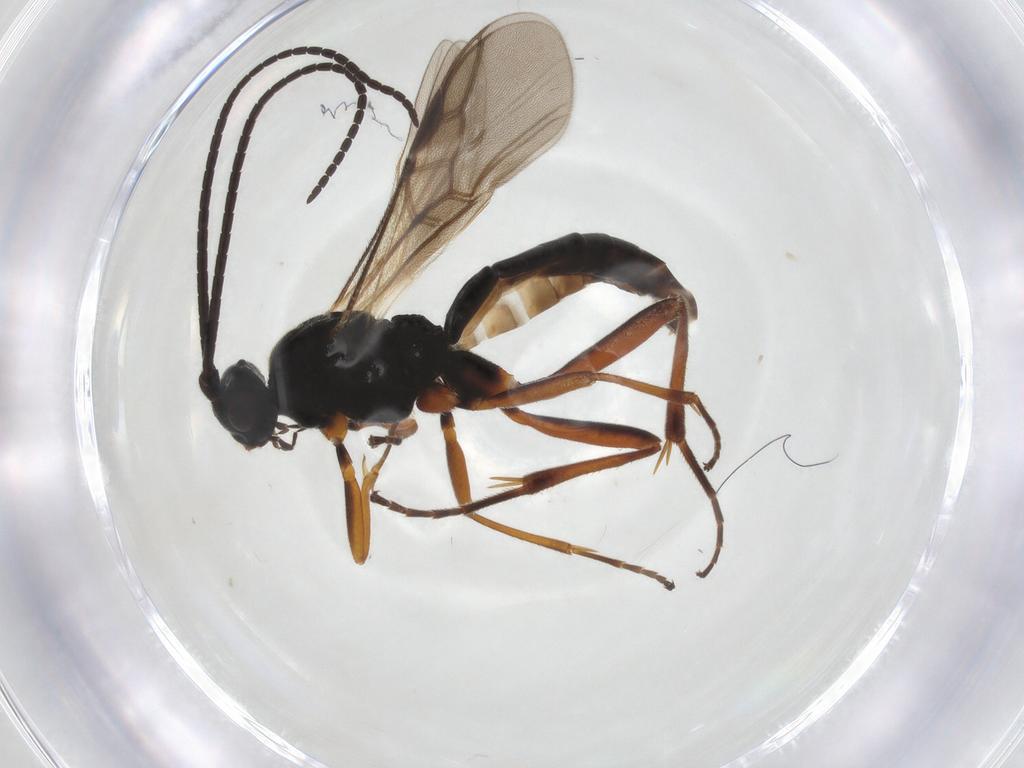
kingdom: Animalia
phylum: Arthropoda
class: Insecta
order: Hymenoptera
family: Braconidae
